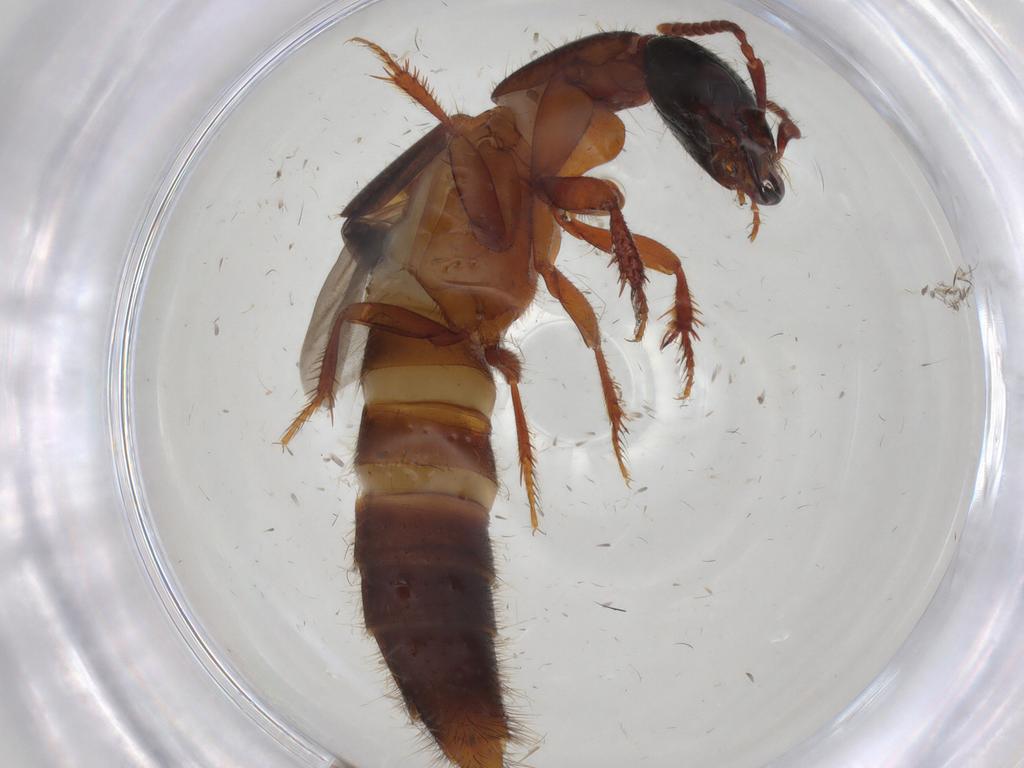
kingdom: Animalia
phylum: Arthropoda
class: Insecta
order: Coleoptera
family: Staphylinidae
